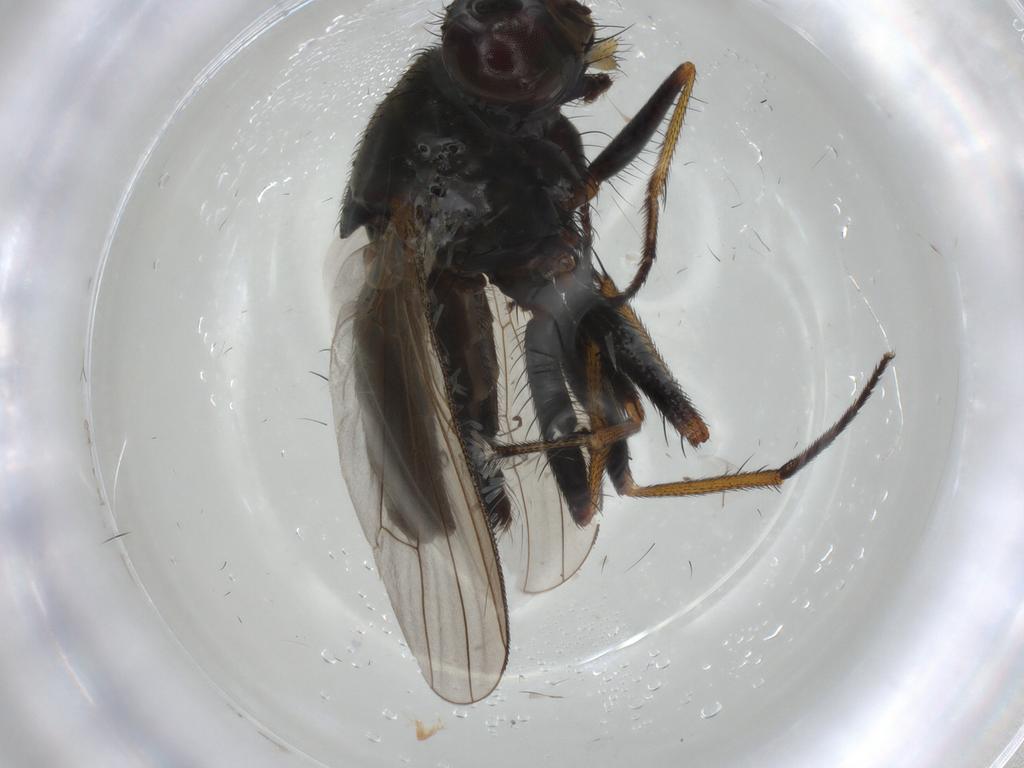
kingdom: Animalia
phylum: Arthropoda
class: Insecta
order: Diptera
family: Muscidae
